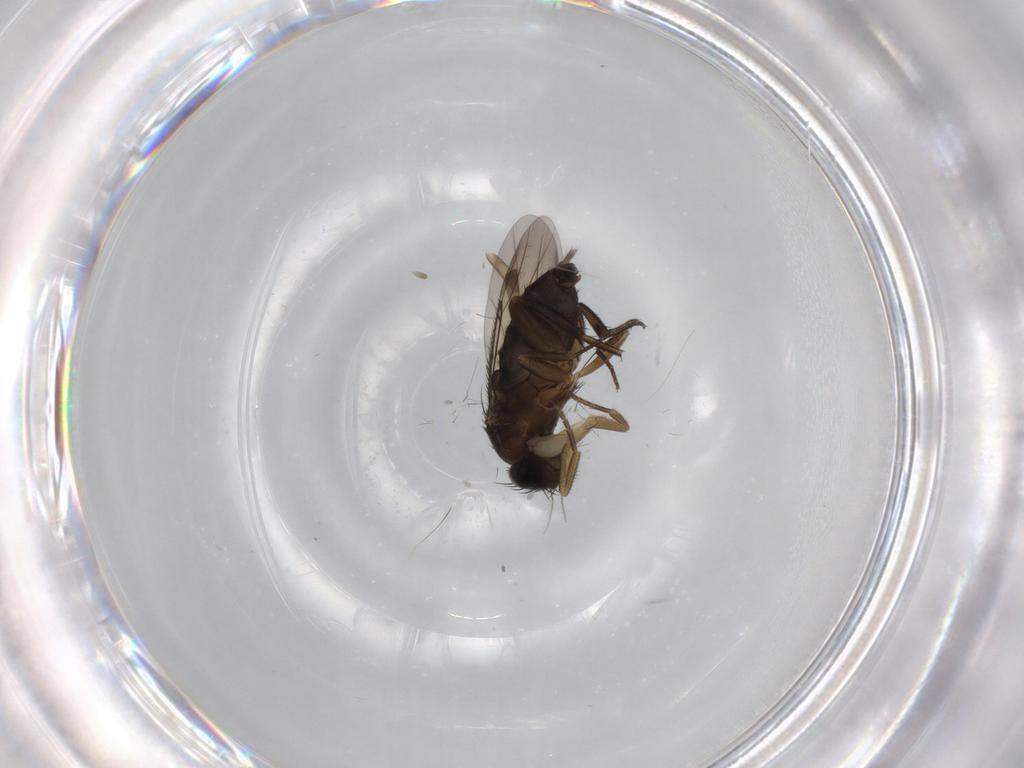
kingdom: Animalia
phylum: Arthropoda
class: Insecta
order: Diptera
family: Phoridae
